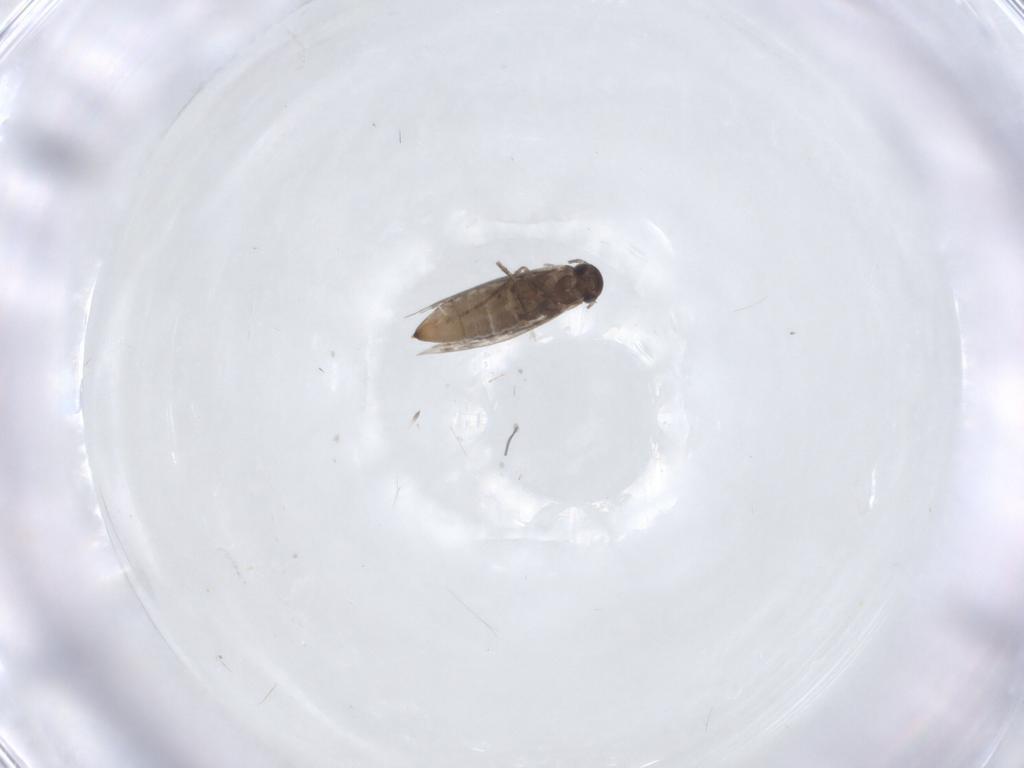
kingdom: Animalia
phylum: Arthropoda
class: Insecta
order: Lepidoptera
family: Heliozelidae
